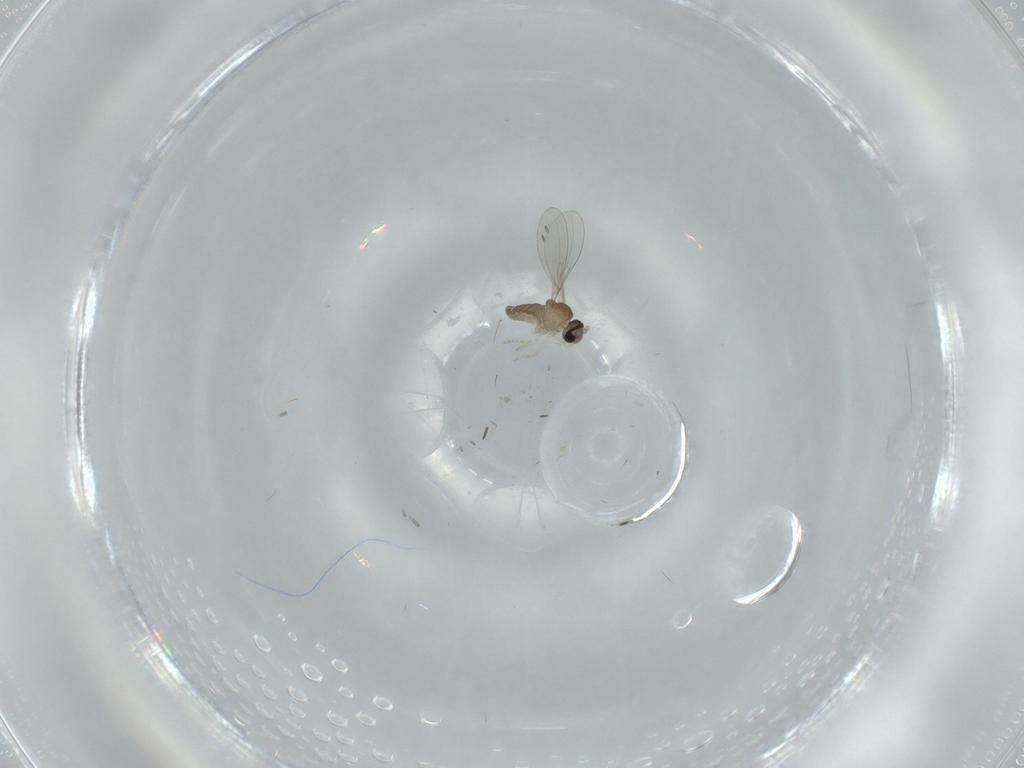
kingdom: Animalia
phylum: Arthropoda
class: Insecta
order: Diptera
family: Cecidomyiidae
